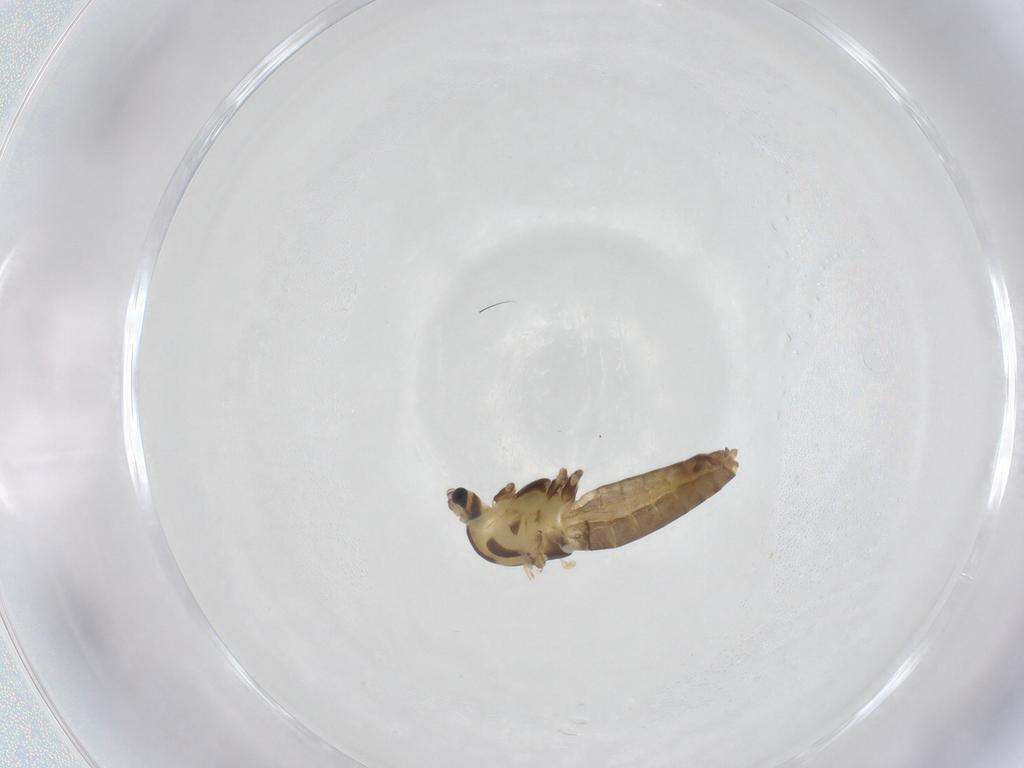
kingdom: Animalia
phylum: Arthropoda
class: Insecta
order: Diptera
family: Chironomidae
